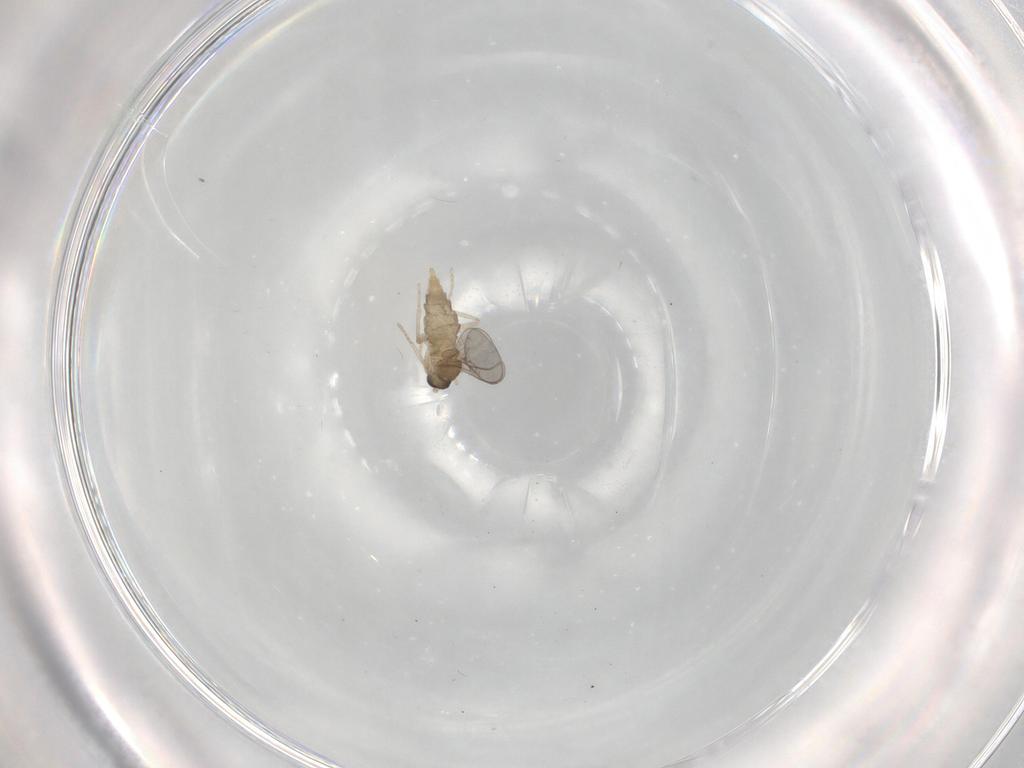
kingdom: Animalia
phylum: Arthropoda
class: Insecta
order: Diptera
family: Cecidomyiidae
